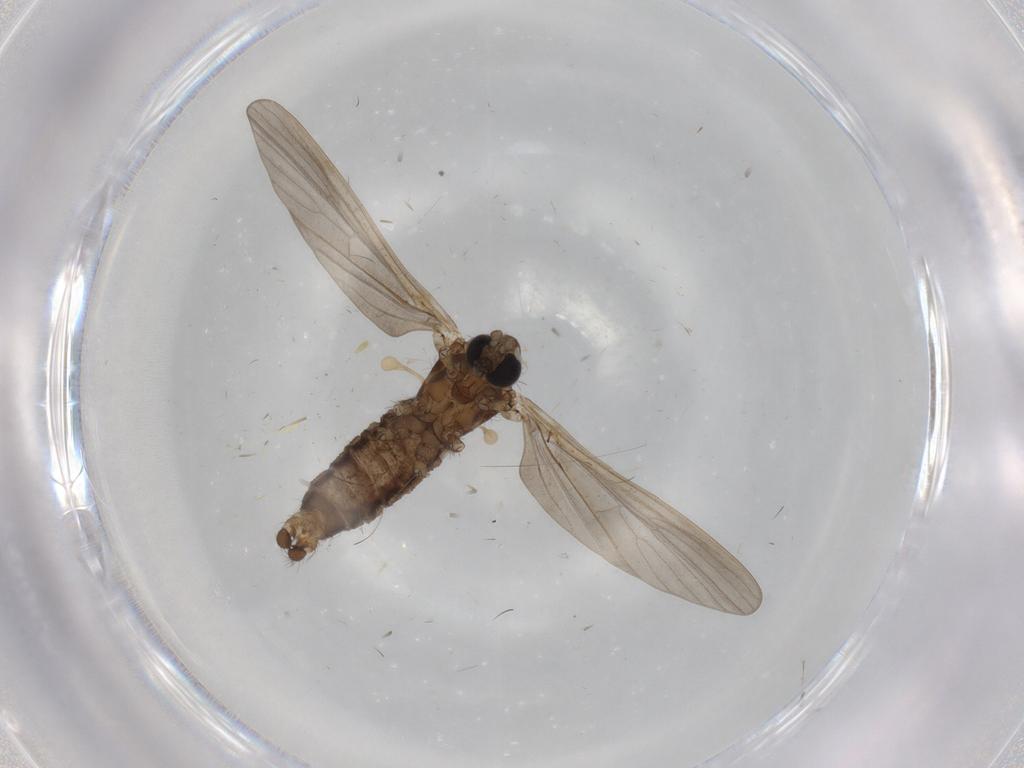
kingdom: Animalia
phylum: Arthropoda
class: Insecta
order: Diptera
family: Limoniidae
